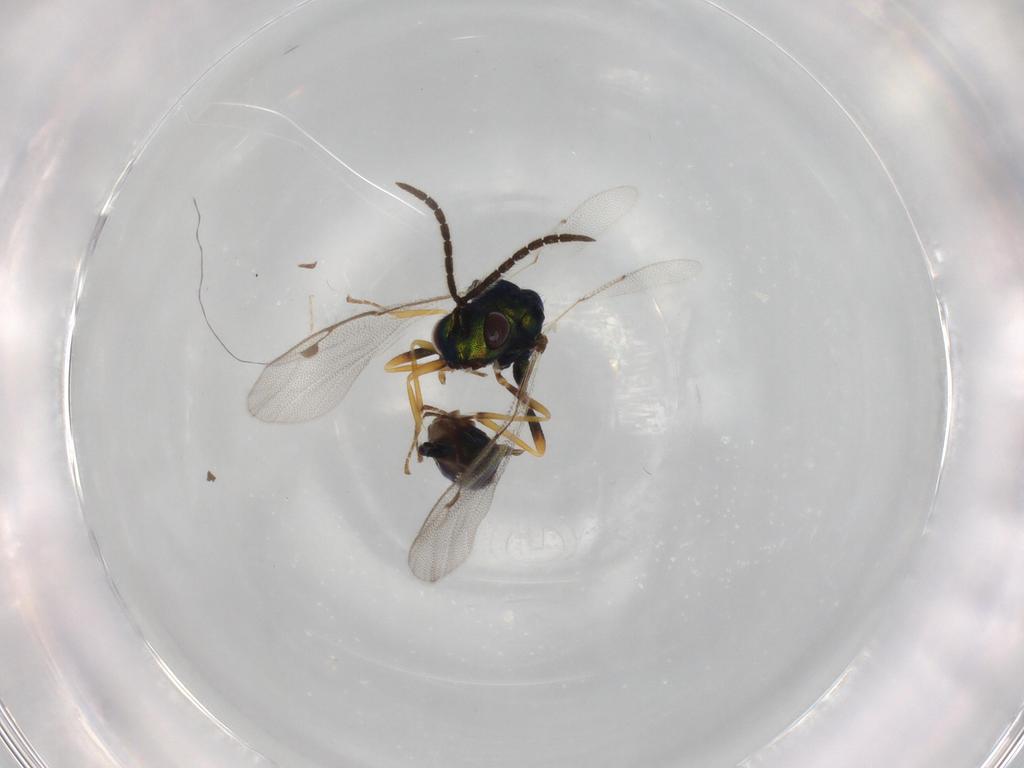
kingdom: Animalia
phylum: Arthropoda
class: Insecta
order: Hymenoptera
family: Pteromalidae
